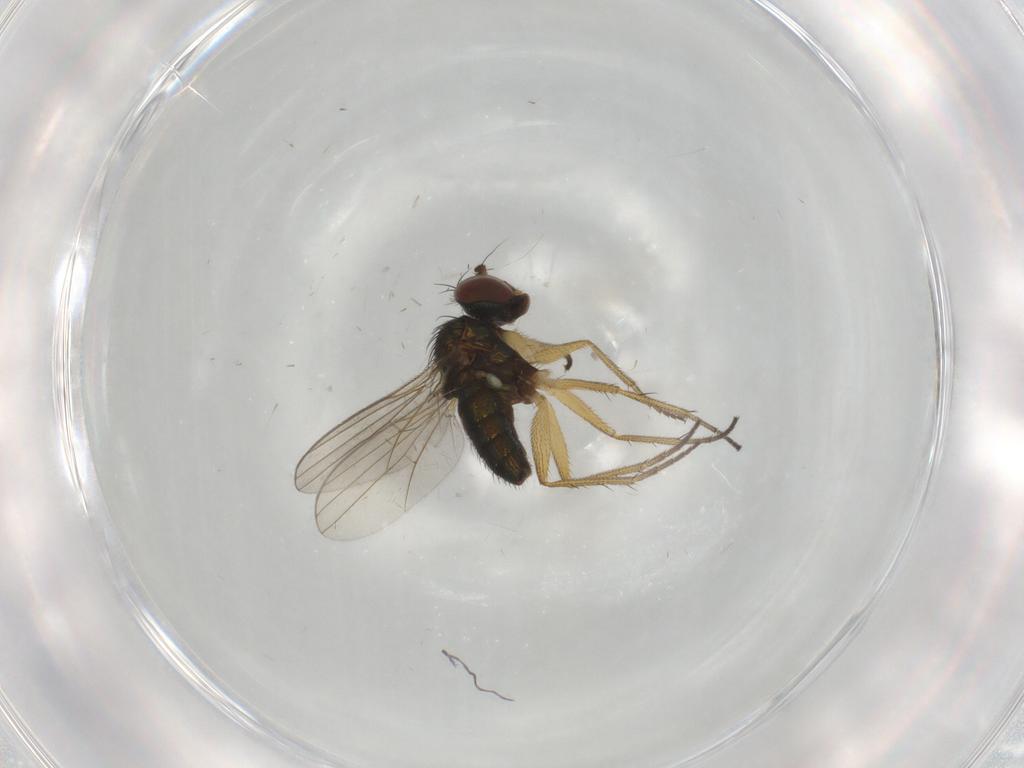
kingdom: Animalia
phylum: Arthropoda
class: Insecta
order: Diptera
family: Dolichopodidae
